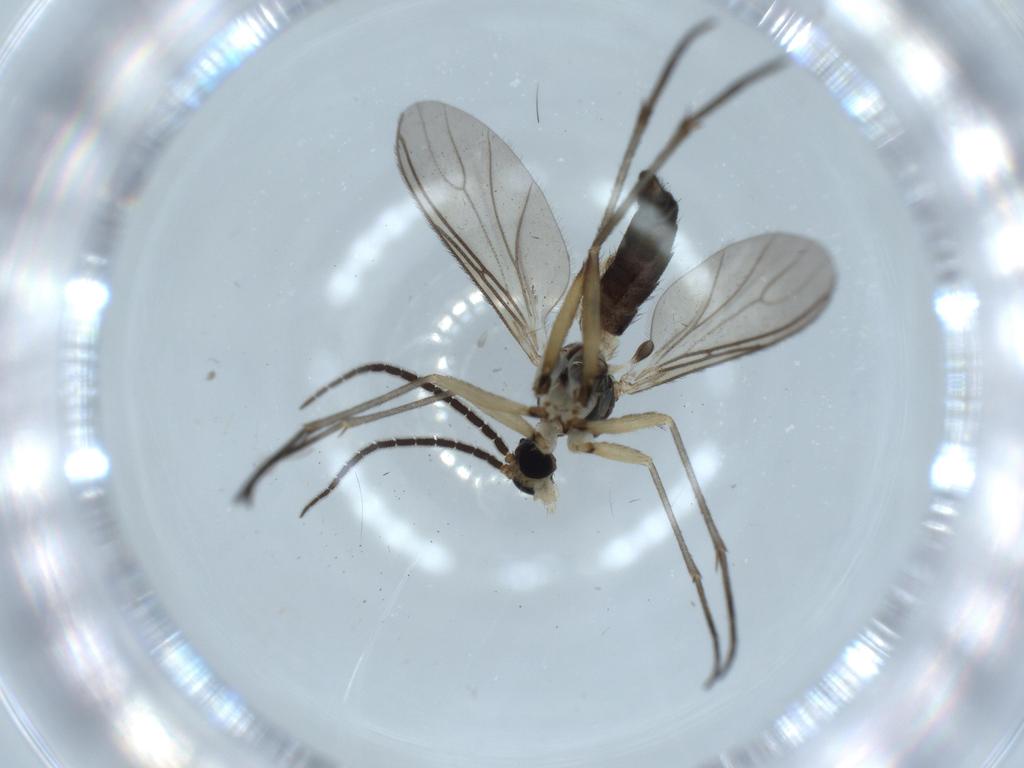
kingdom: Animalia
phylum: Arthropoda
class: Insecta
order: Diptera
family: Sciaridae
